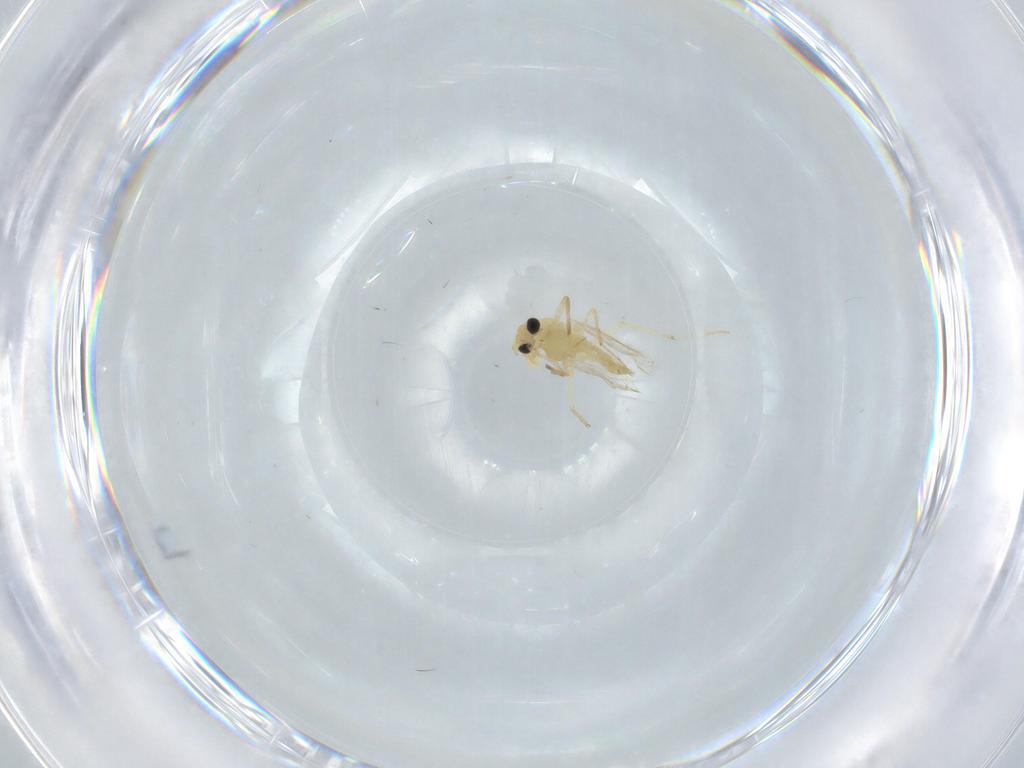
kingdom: Animalia
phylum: Arthropoda
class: Insecta
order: Diptera
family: Chironomidae
